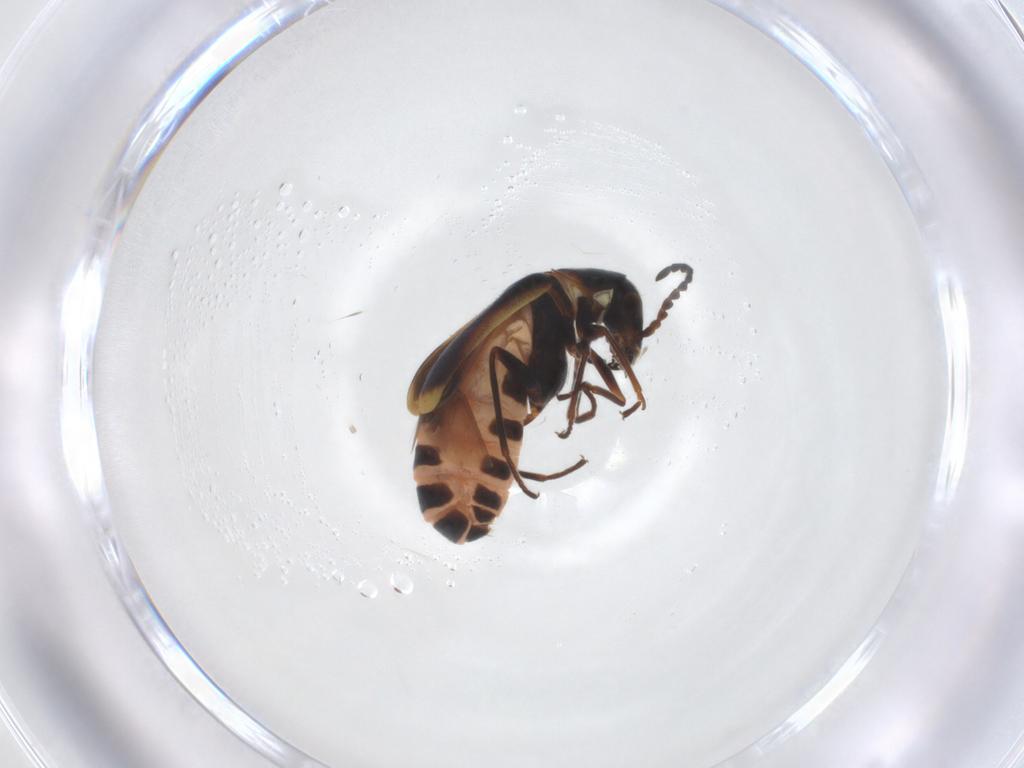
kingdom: Animalia
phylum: Arthropoda
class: Insecta
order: Coleoptera
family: Melyridae
